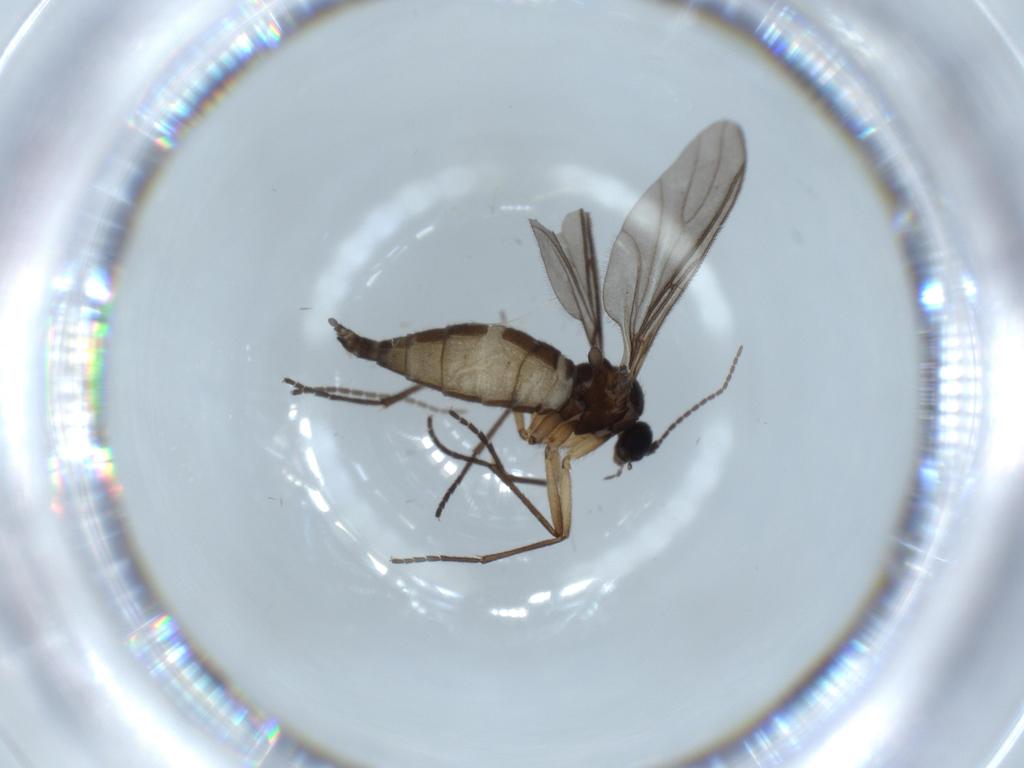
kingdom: Animalia
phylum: Arthropoda
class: Insecta
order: Diptera
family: Sciaridae
